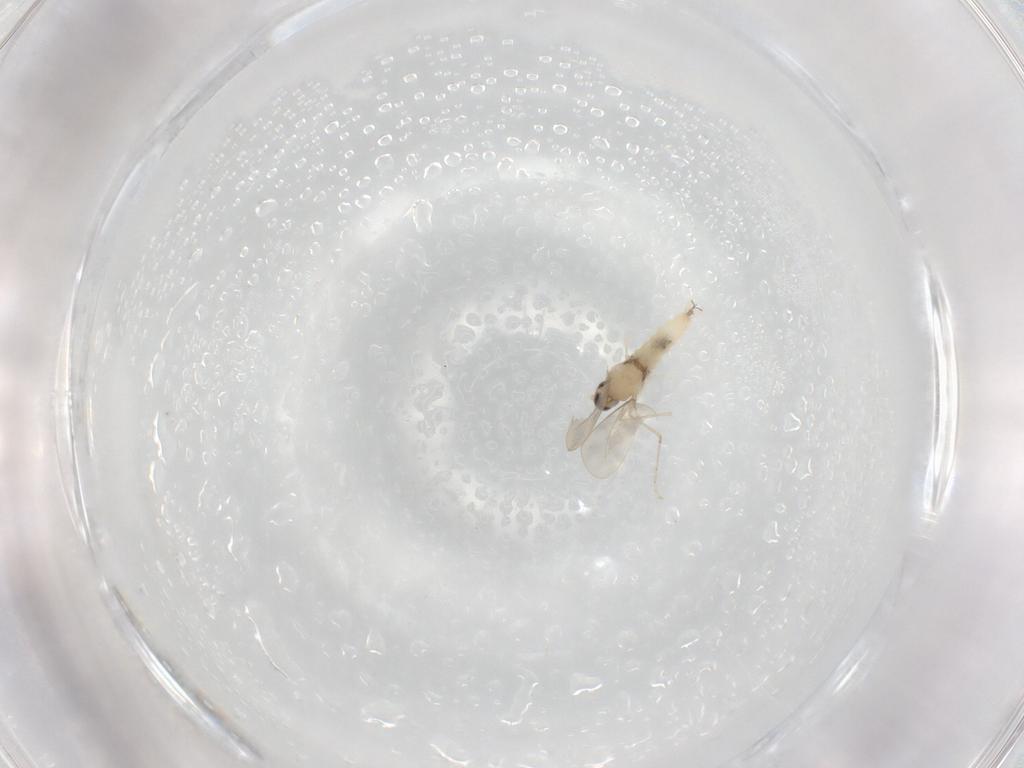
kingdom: Animalia
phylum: Arthropoda
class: Insecta
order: Diptera
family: Cecidomyiidae
